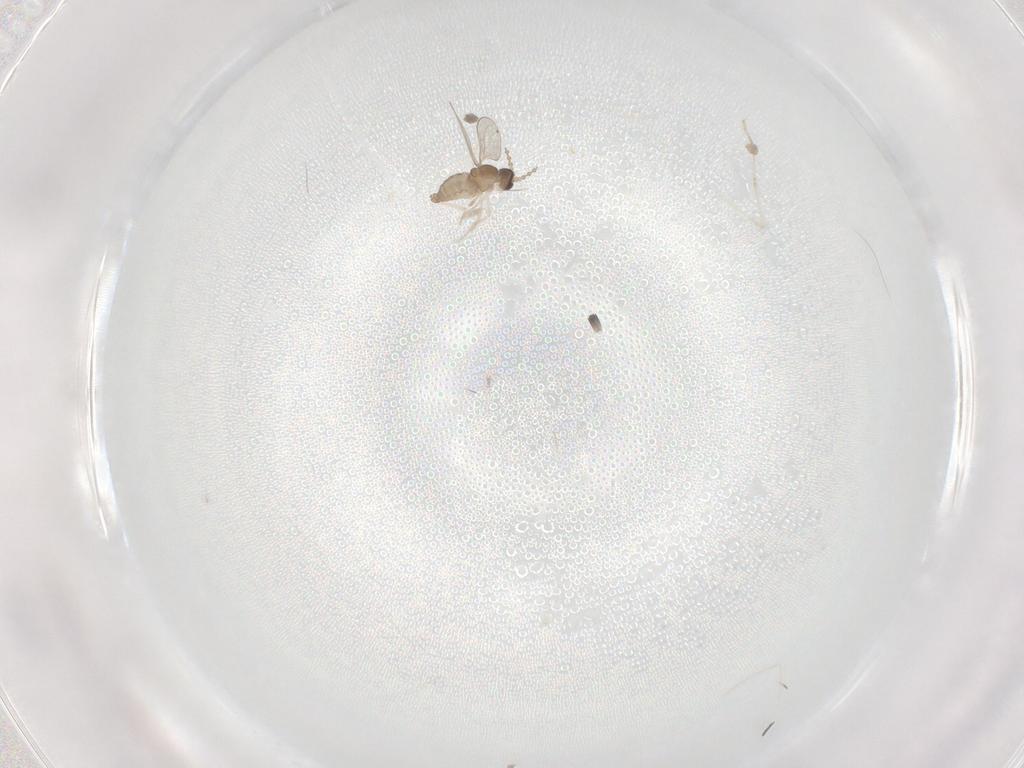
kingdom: Animalia
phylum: Arthropoda
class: Insecta
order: Diptera
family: Cecidomyiidae
